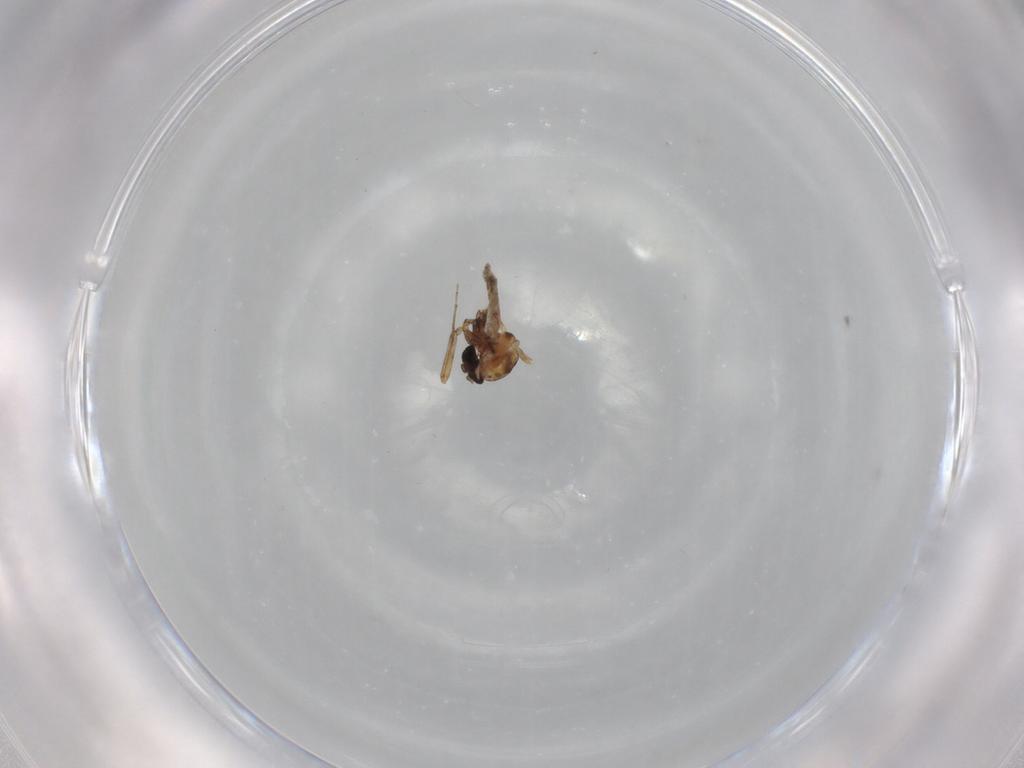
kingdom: Animalia
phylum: Arthropoda
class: Insecta
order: Diptera
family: Chironomidae
